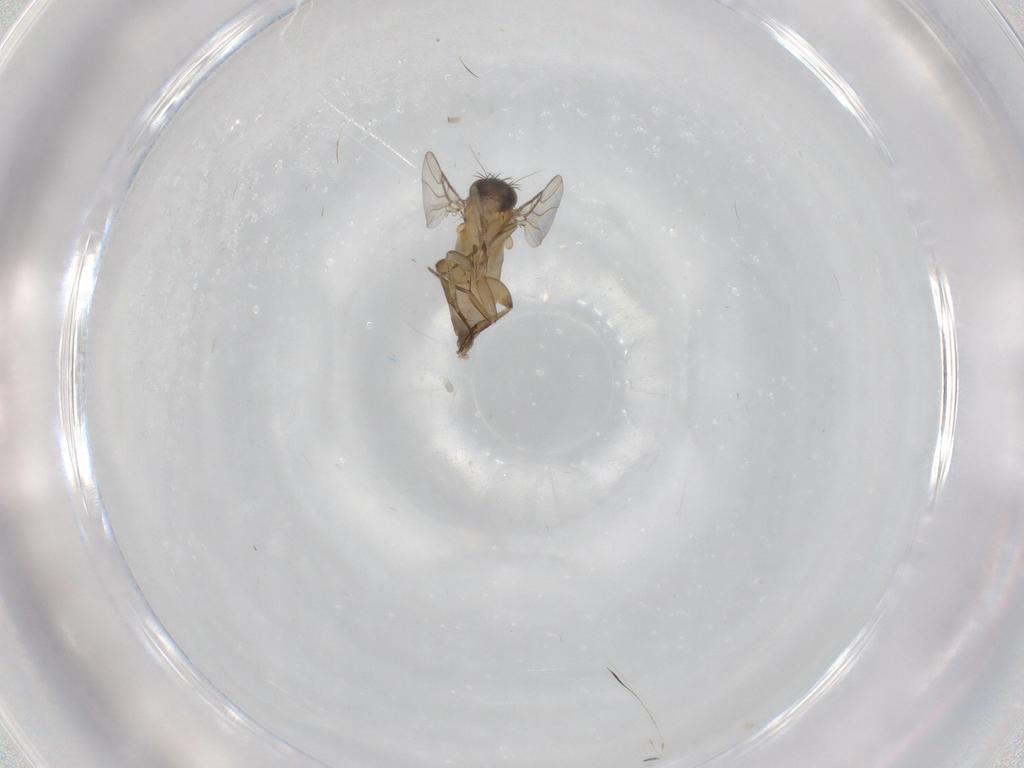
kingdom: Animalia
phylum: Arthropoda
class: Insecta
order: Diptera
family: Phoridae
